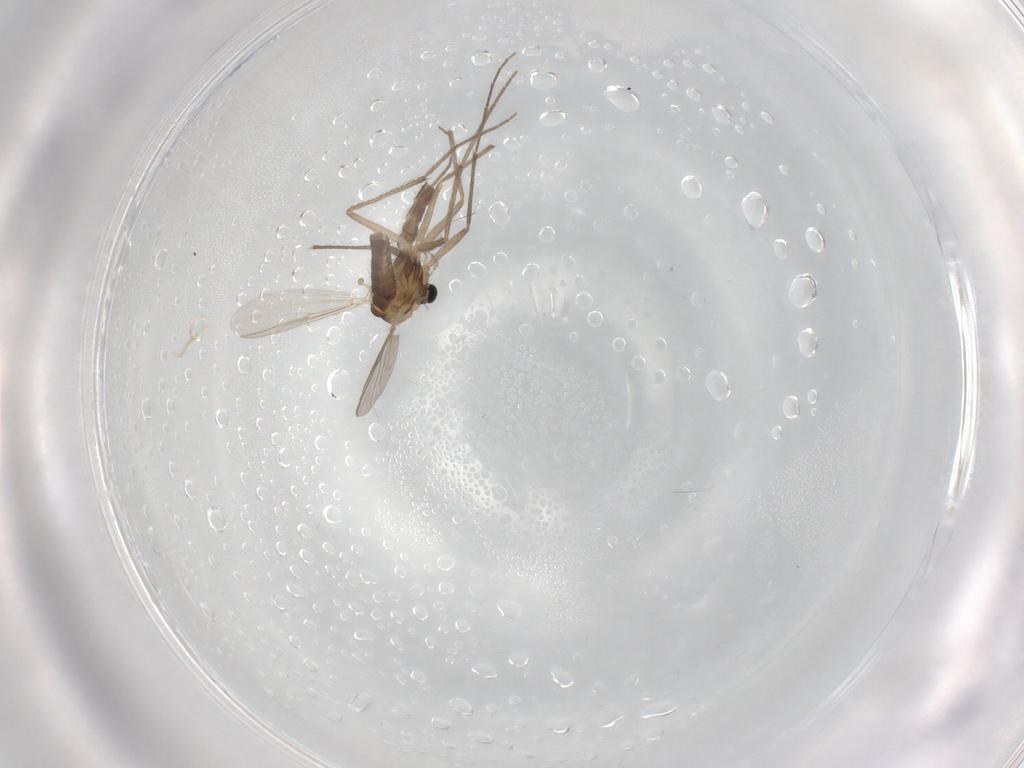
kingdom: Animalia
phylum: Arthropoda
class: Insecta
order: Diptera
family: Chironomidae
